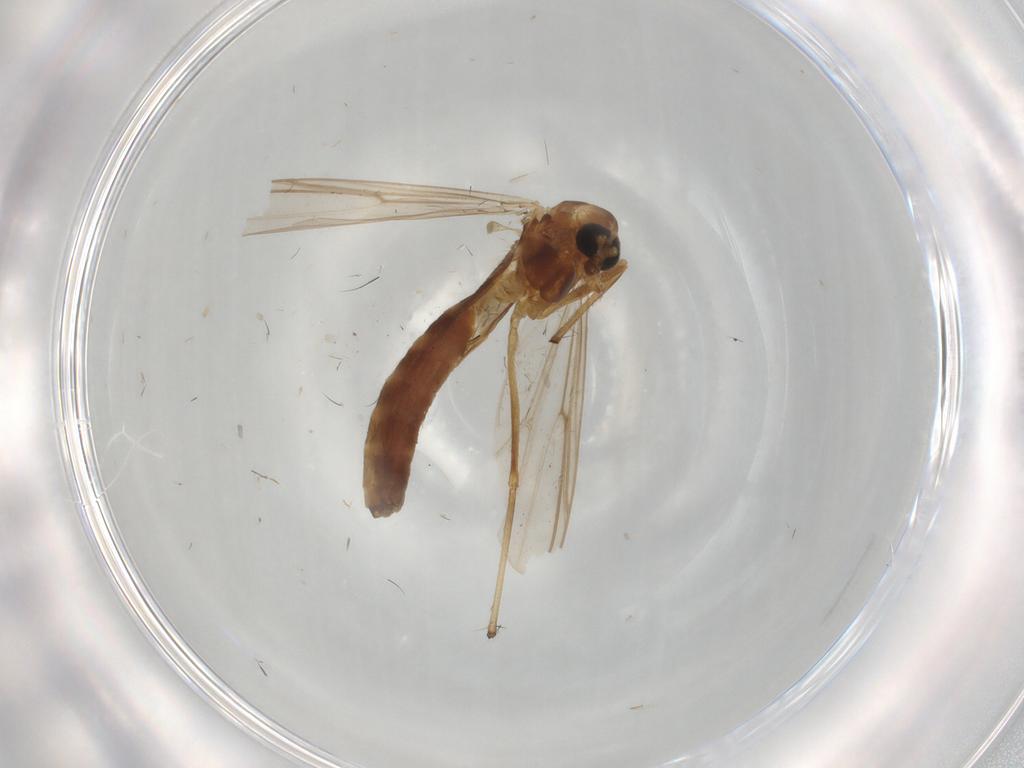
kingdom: Animalia
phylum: Arthropoda
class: Insecta
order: Diptera
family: Chironomidae
